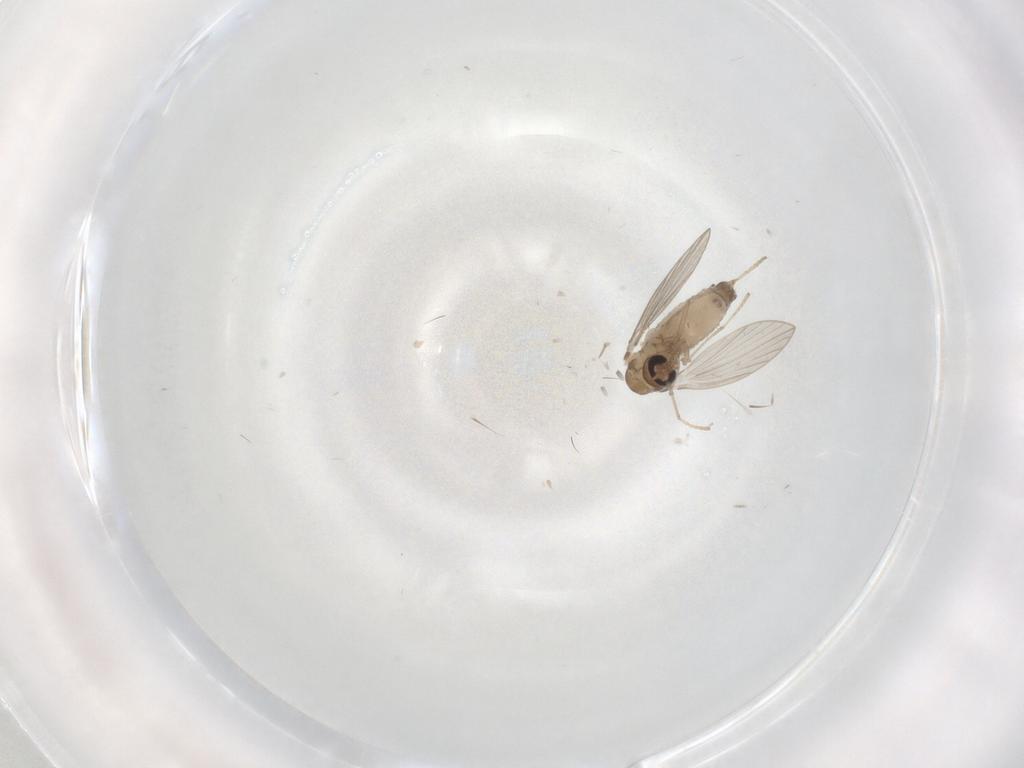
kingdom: Animalia
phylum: Arthropoda
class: Insecta
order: Diptera
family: Psychodidae
